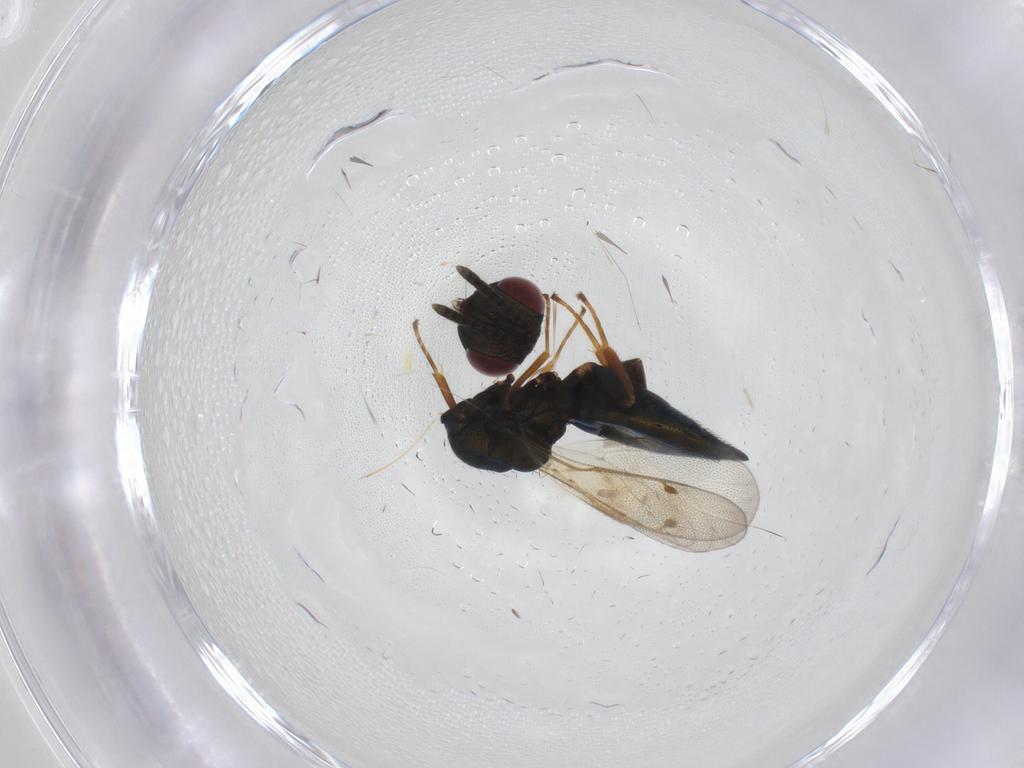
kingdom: Animalia
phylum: Arthropoda
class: Insecta
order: Hymenoptera
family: Pteromalidae
